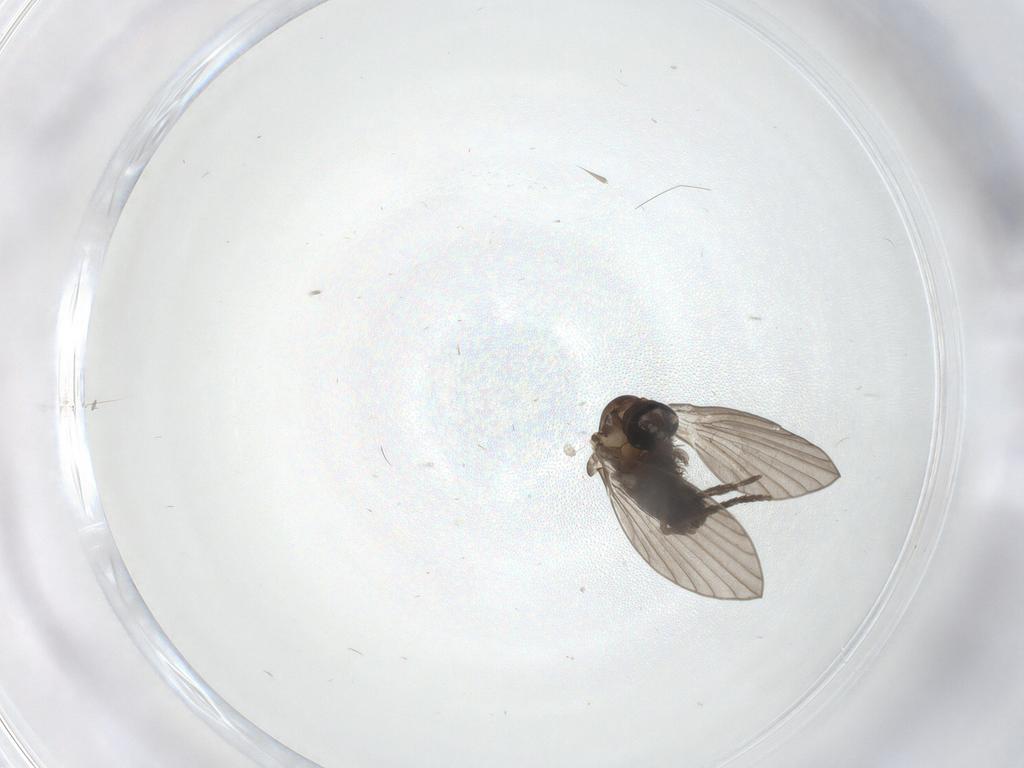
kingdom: Animalia
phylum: Arthropoda
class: Insecta
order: Diptera
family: Psychodidae
